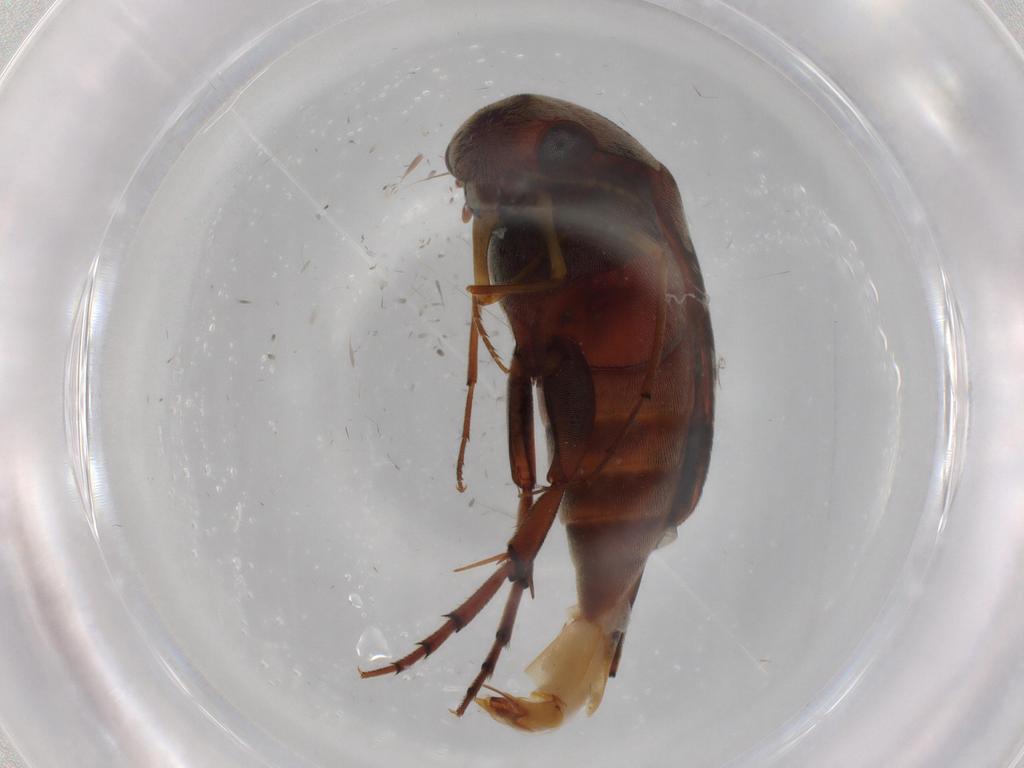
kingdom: Animalia
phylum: Arthropoda
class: Insecta
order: Coleoptera
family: Mordellidae
